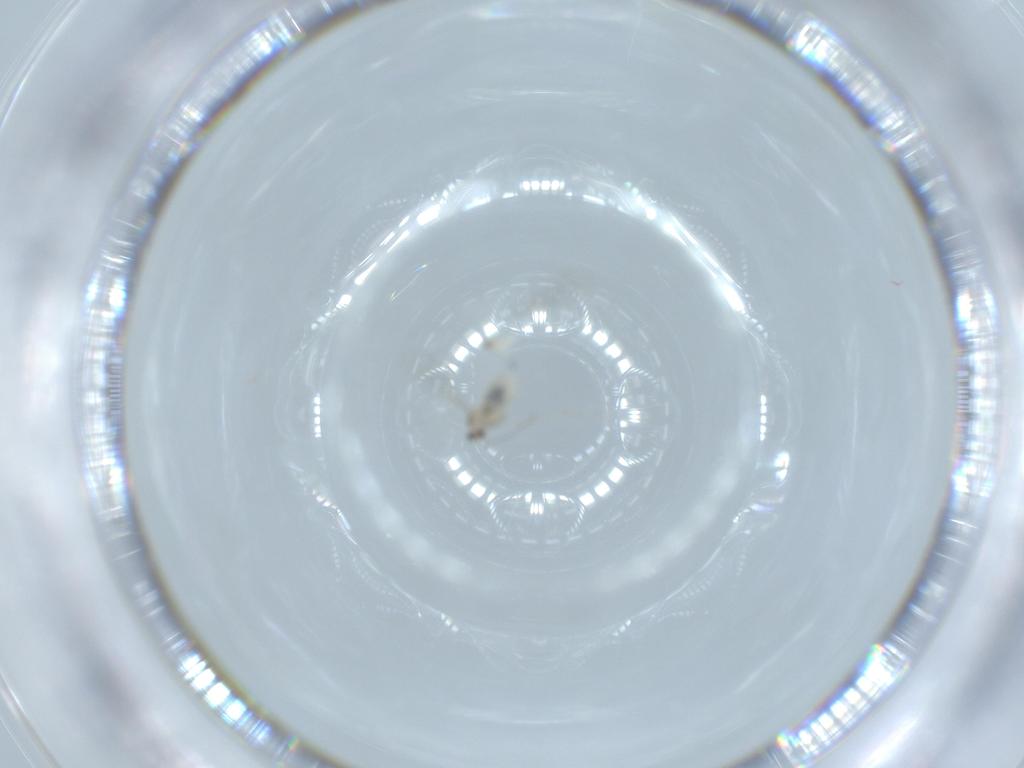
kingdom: Animalia
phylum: Arthropoda
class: Insecta
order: Diptera
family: Cecidomyiidae
